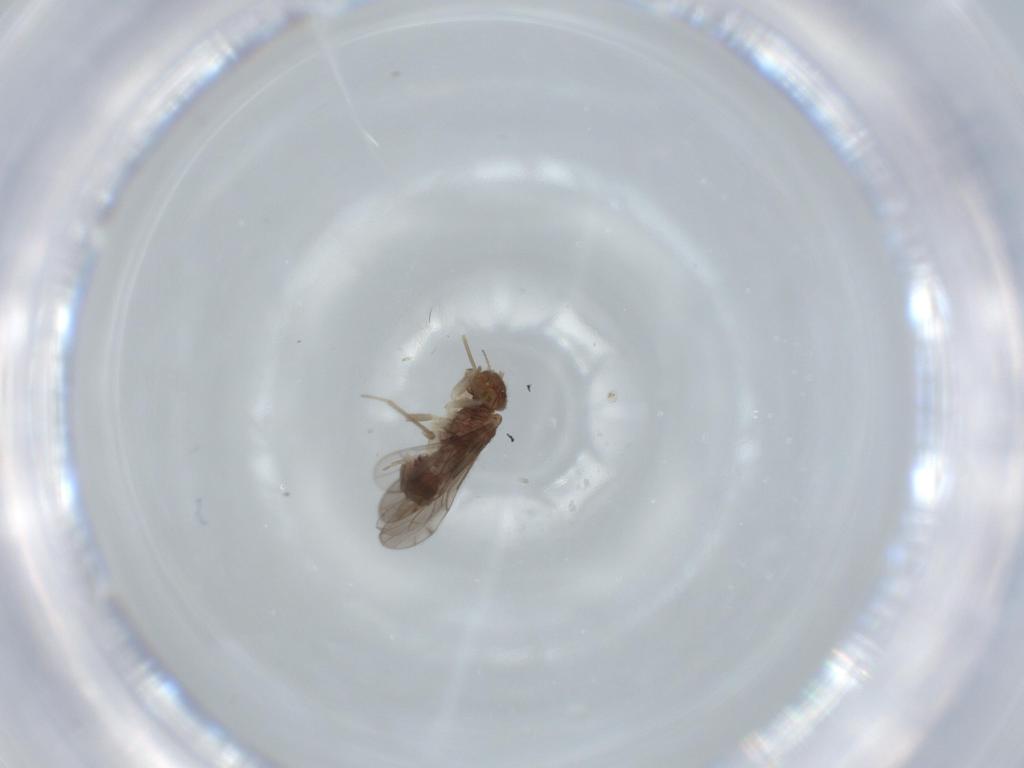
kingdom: Animalia
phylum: Arthropoda
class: Insecta
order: Psocodea
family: Ectopsocidae
